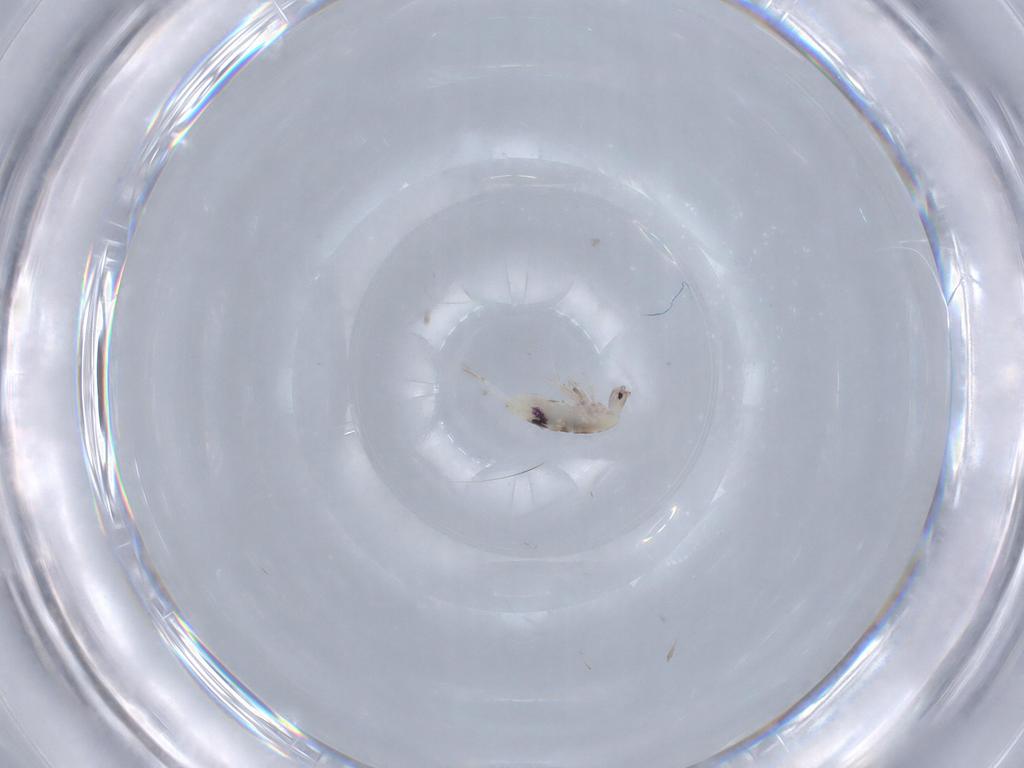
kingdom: Animalia
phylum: Arthropoda
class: Collembola
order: Entomobryomorpha
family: Entomobryidae
